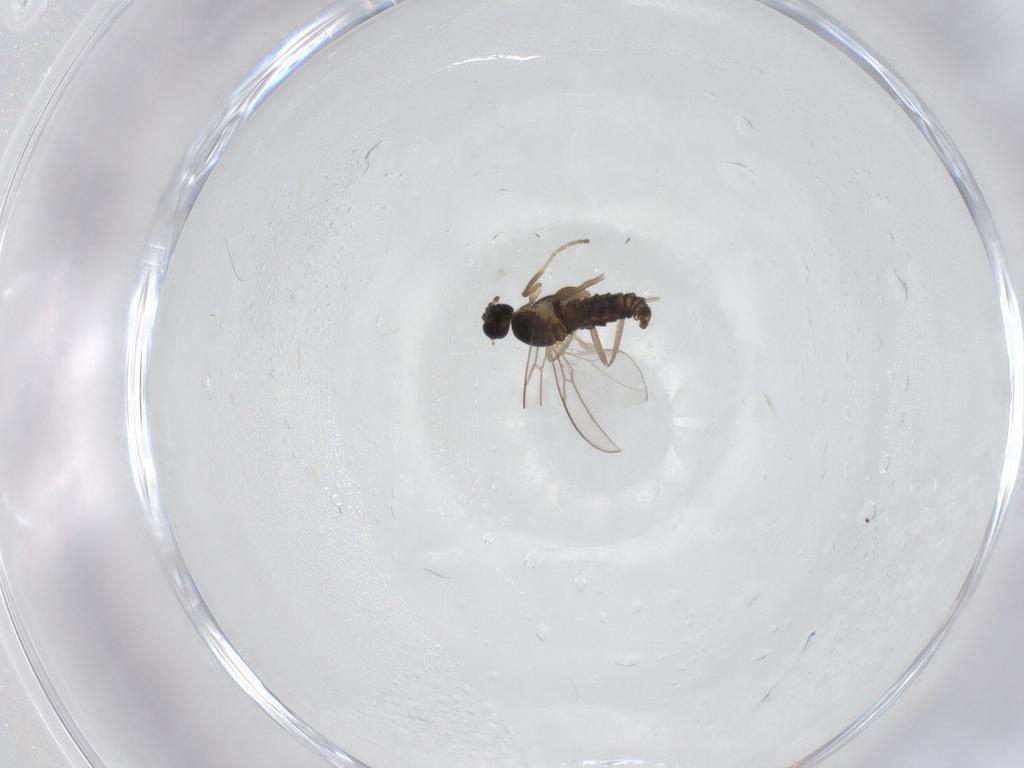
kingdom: Animalia
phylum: Arthropoda
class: Insecta
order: Diptera
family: Cecidomyiidae
